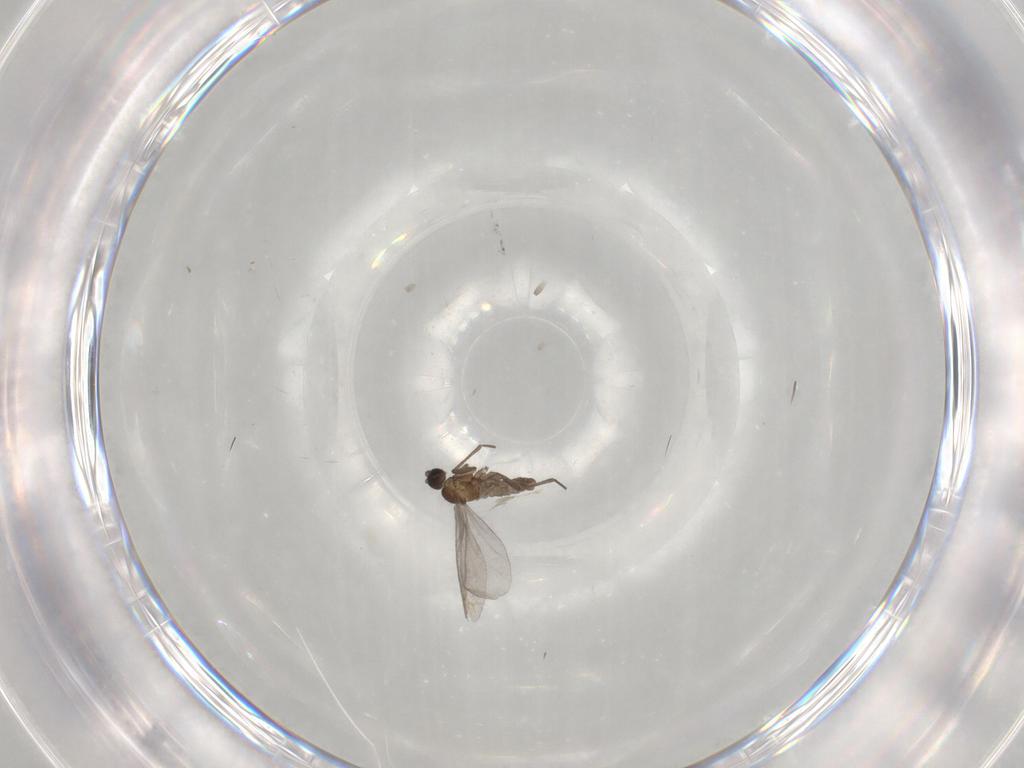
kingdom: Animalia
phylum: Arthropoda
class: Insecta
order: Diptera
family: Sciaridae
